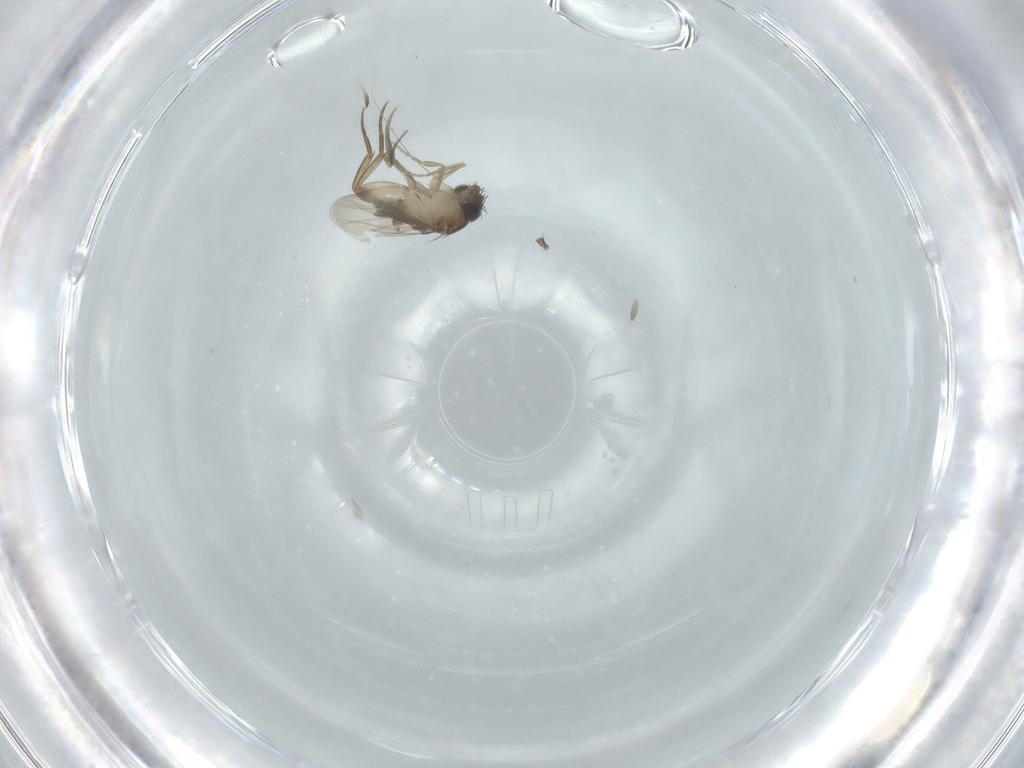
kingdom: Animalia
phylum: Arthropoda
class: Insecta
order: Diptera
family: Phoridae
